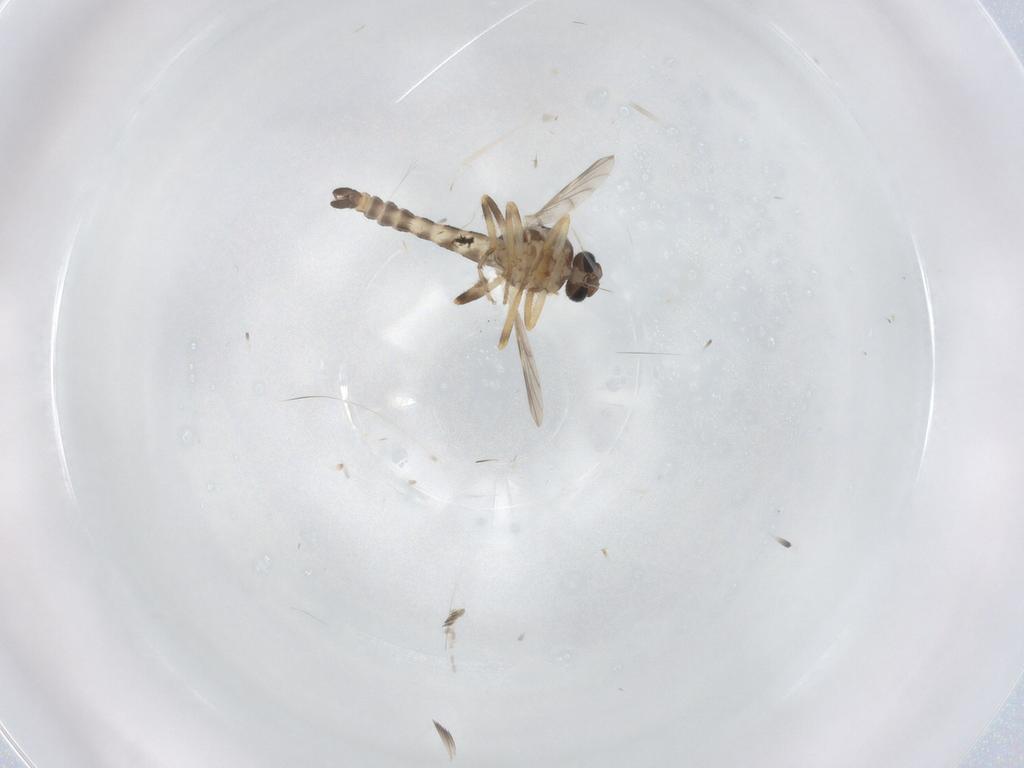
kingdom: Animalia
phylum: Arthropoda
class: Insecta
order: Diptera
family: Ceratopogonidae
